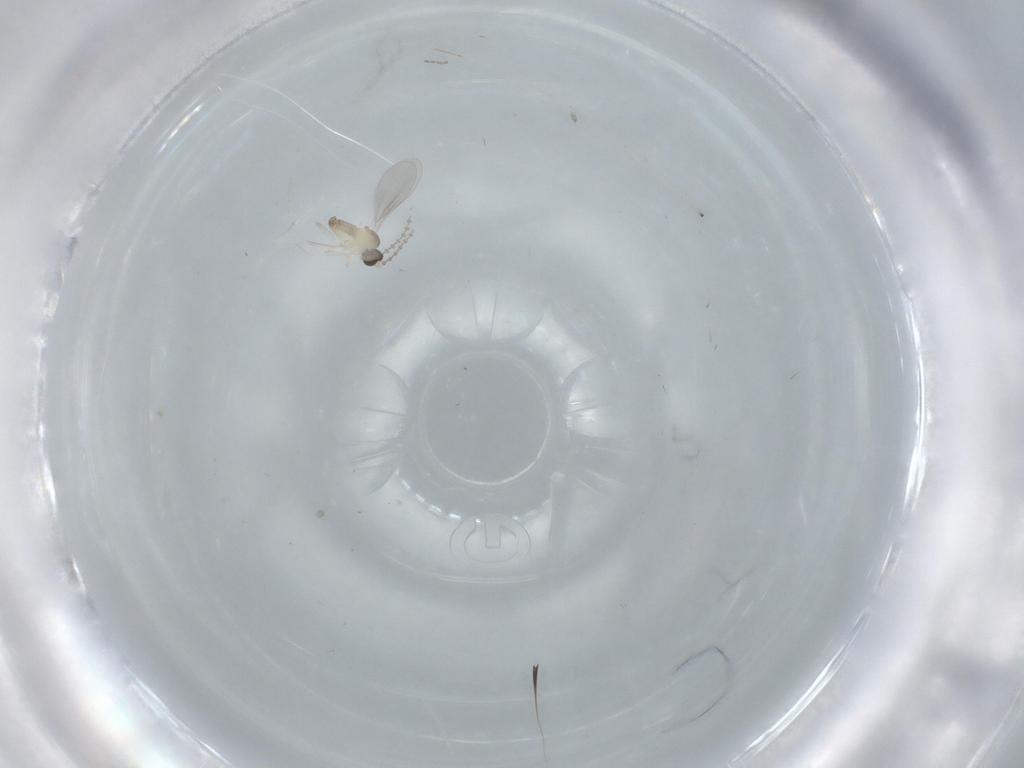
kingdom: Animalia
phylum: Arthropoda
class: Insecta
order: Diptera
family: Cecidomyiidae
